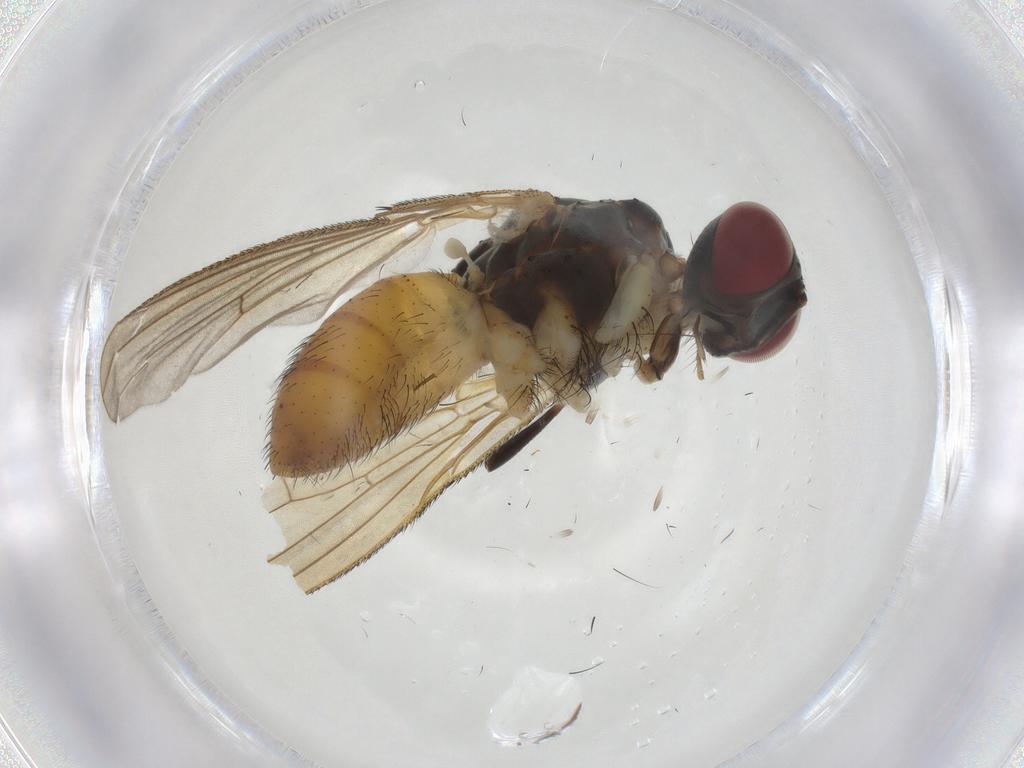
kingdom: Animalia
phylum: Arthropoda
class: Insecta
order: Diptera
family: Muscidae
